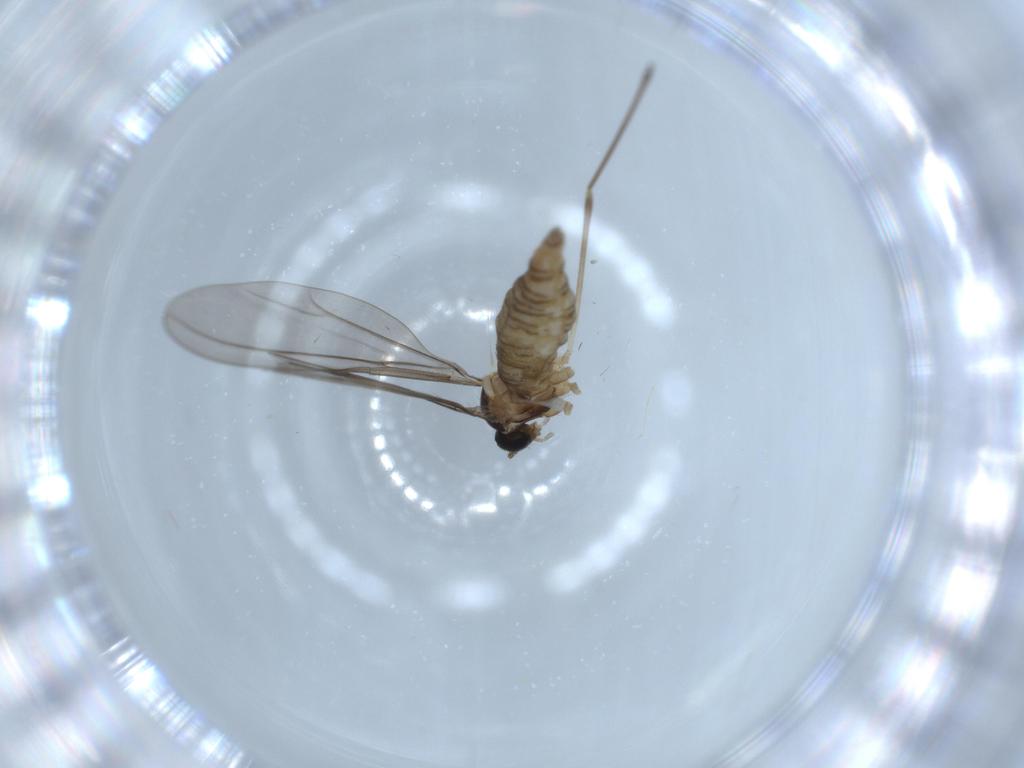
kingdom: Animalia
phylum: Arthropoda
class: Insecta
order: Diptera
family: Cecidomyiidae
